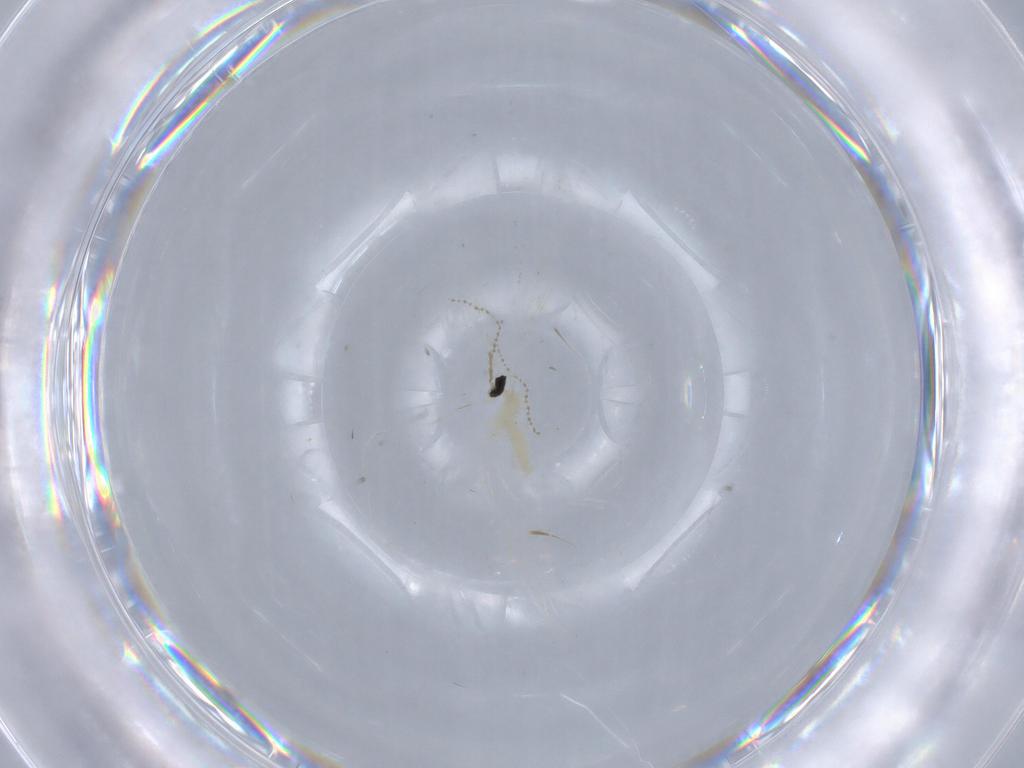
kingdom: Animalia
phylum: Arthropoda
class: Insecta
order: Diptera
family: Cecidomyiidae
